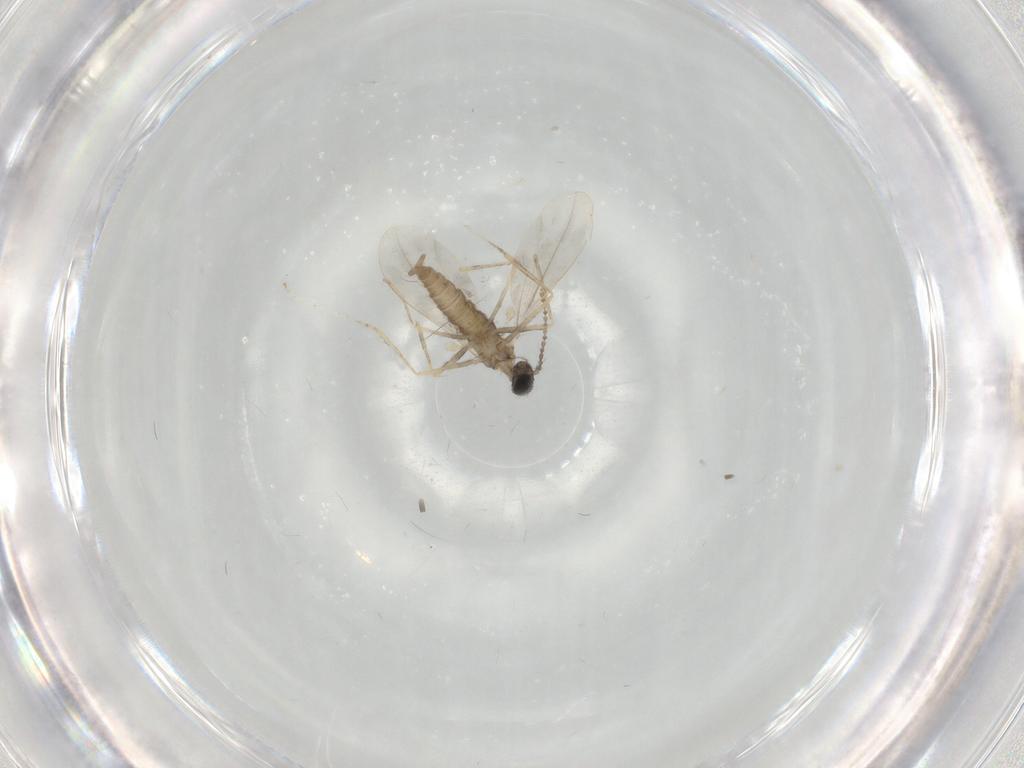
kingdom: Animalia
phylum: Arthropoda
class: Insecta
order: Diptera
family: Cecidomyiidae
